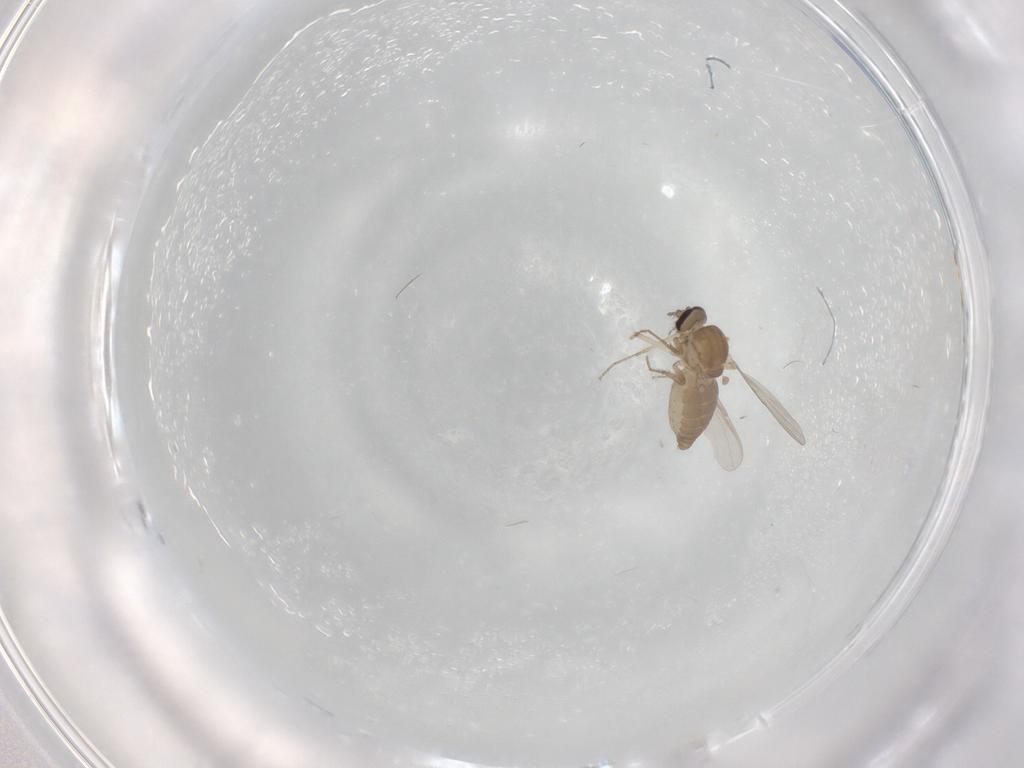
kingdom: Animalia
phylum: Arthropoda
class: Insecta
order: Diptera
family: Ceratopogonidae
